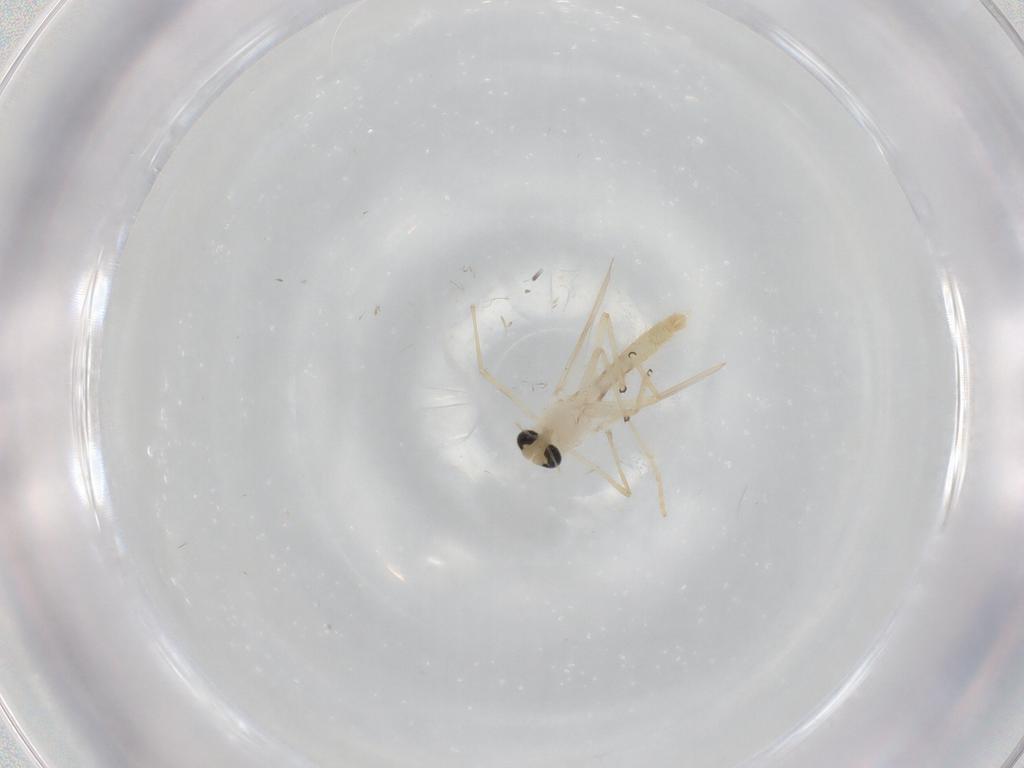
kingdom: Animalia
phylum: Arthropoda
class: Insecta
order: Diptera
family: Chironomidae
